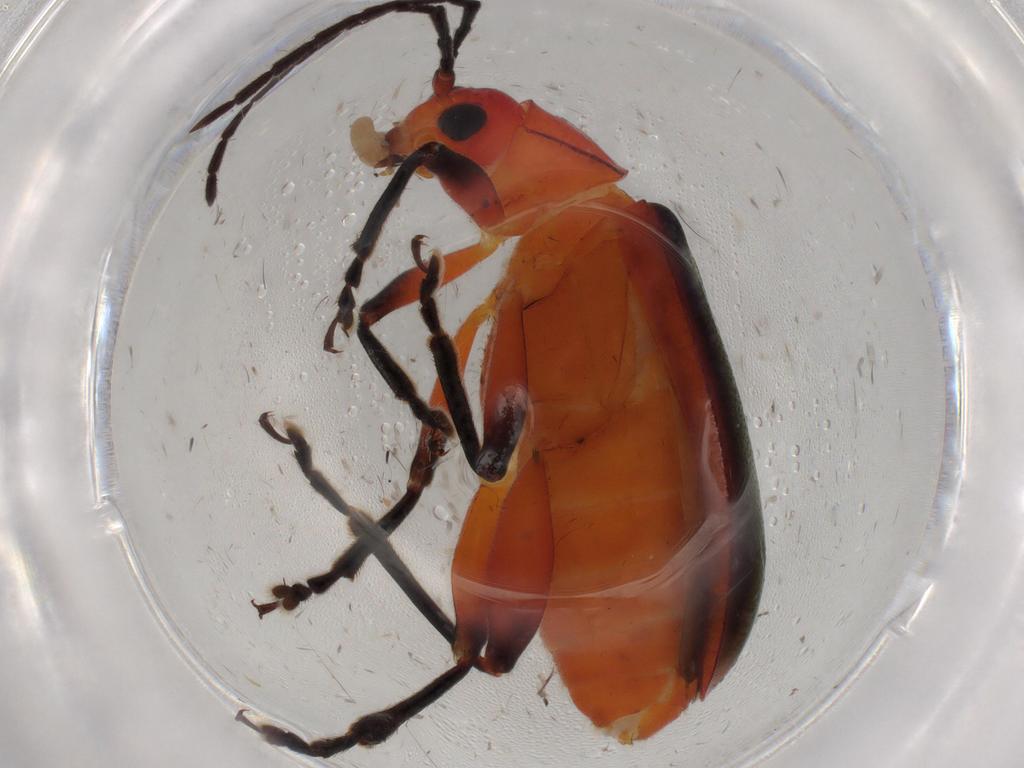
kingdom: Animalia
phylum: Arthropoda
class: Insecta
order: Coleoptera
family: Chrysomelidae
